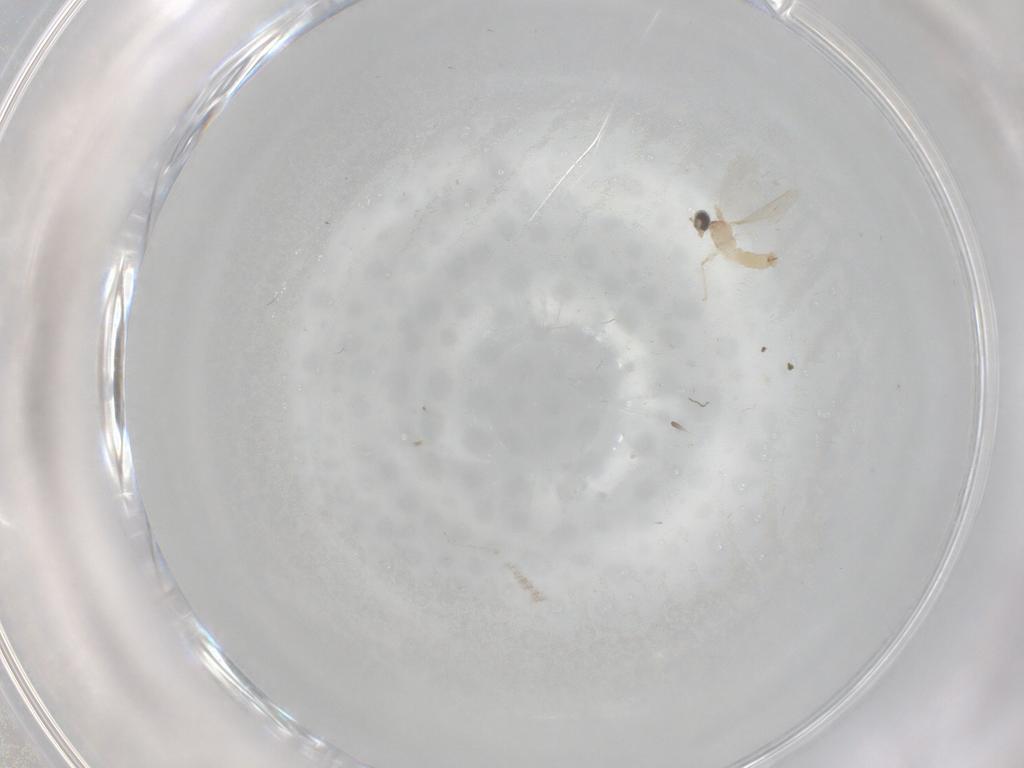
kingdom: Animalia
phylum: Arthropoda
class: Insecta
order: Diptera
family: Cecidomyiidae
